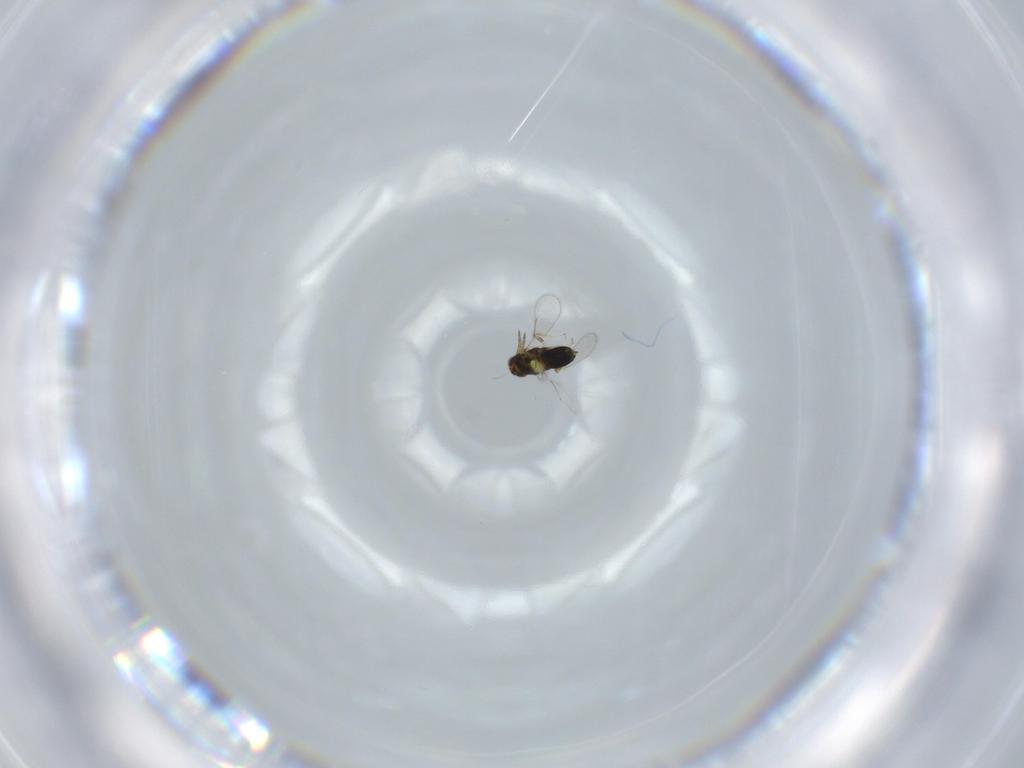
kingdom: Animalia
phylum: Arthropoda
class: Insecta
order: Hymenoptera
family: Aphelinidae
